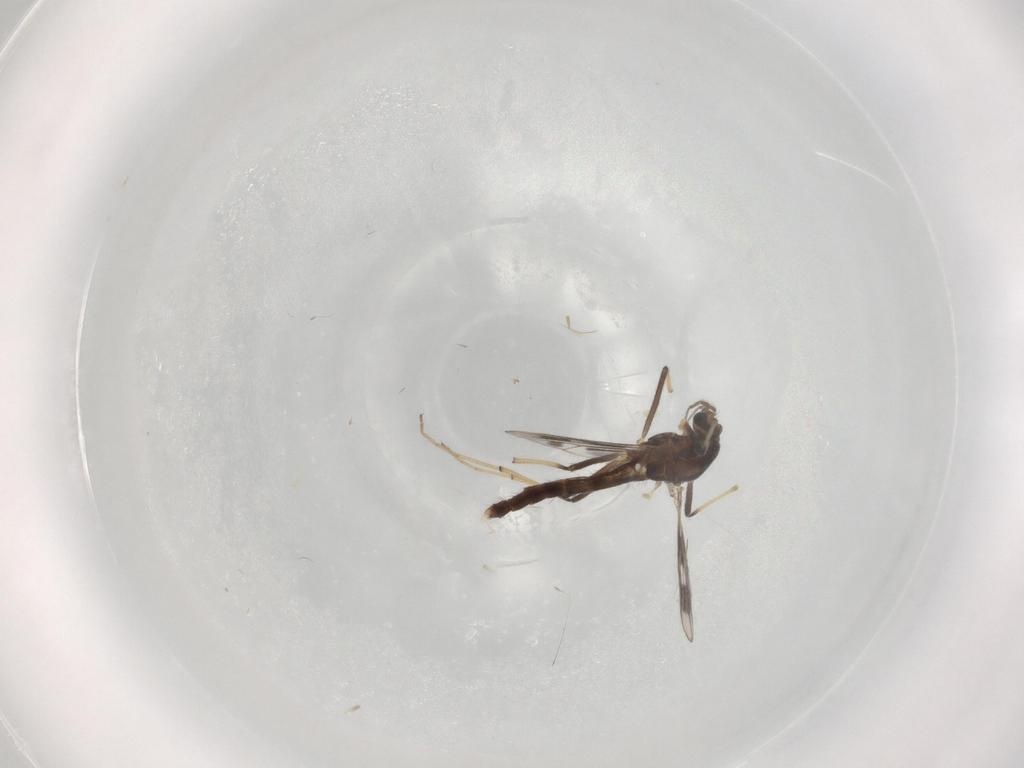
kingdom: Animalia
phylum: Arthropoda
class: Insecta
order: Diptera
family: Chironomidae
